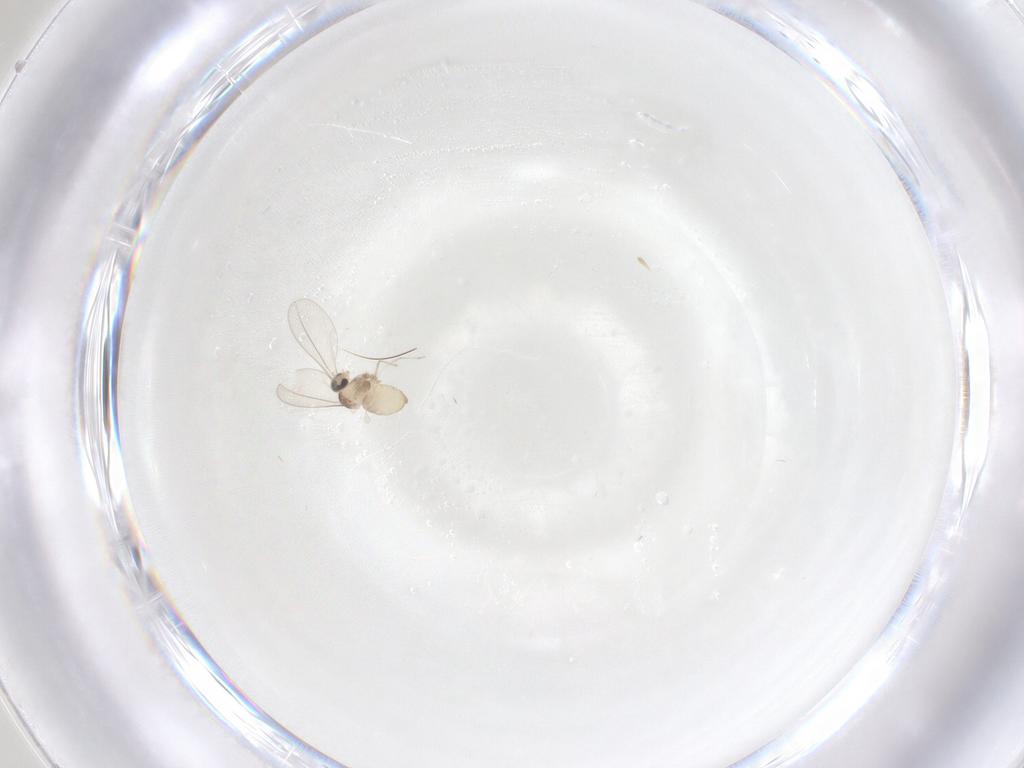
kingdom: Animalia
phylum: Arthropoda
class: Insecta
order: Diptera
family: Cecidomyiidae
